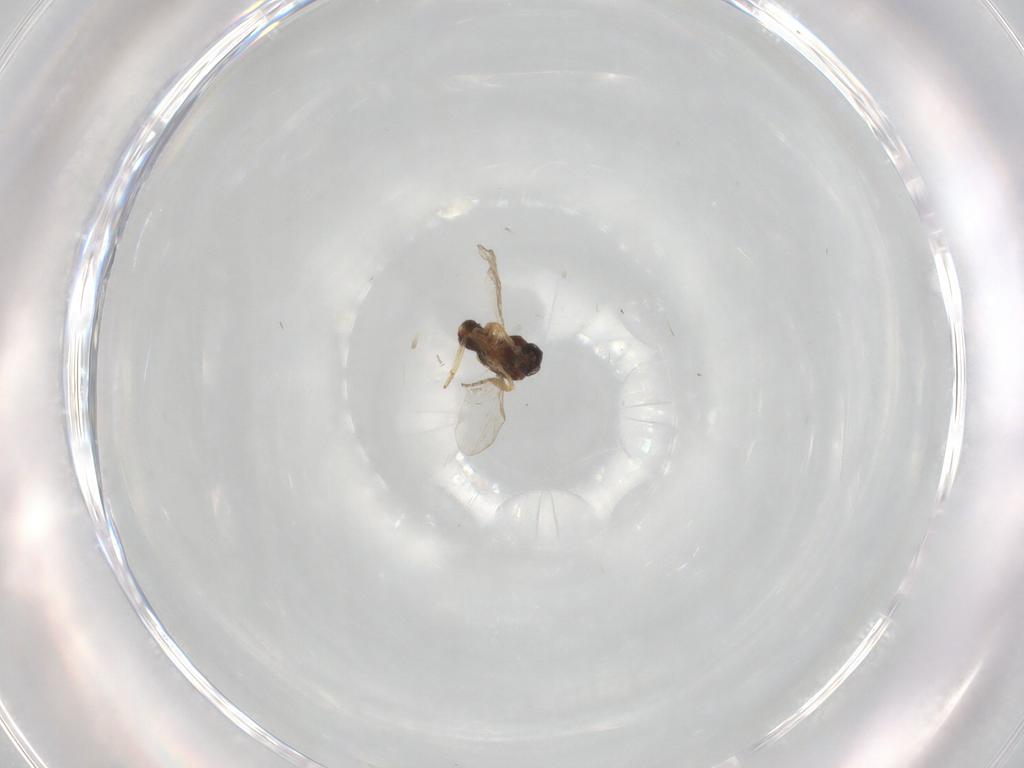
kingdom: Animalia
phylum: Arthropoda
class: Insecta
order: Diptera
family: Ceratopogonidae
